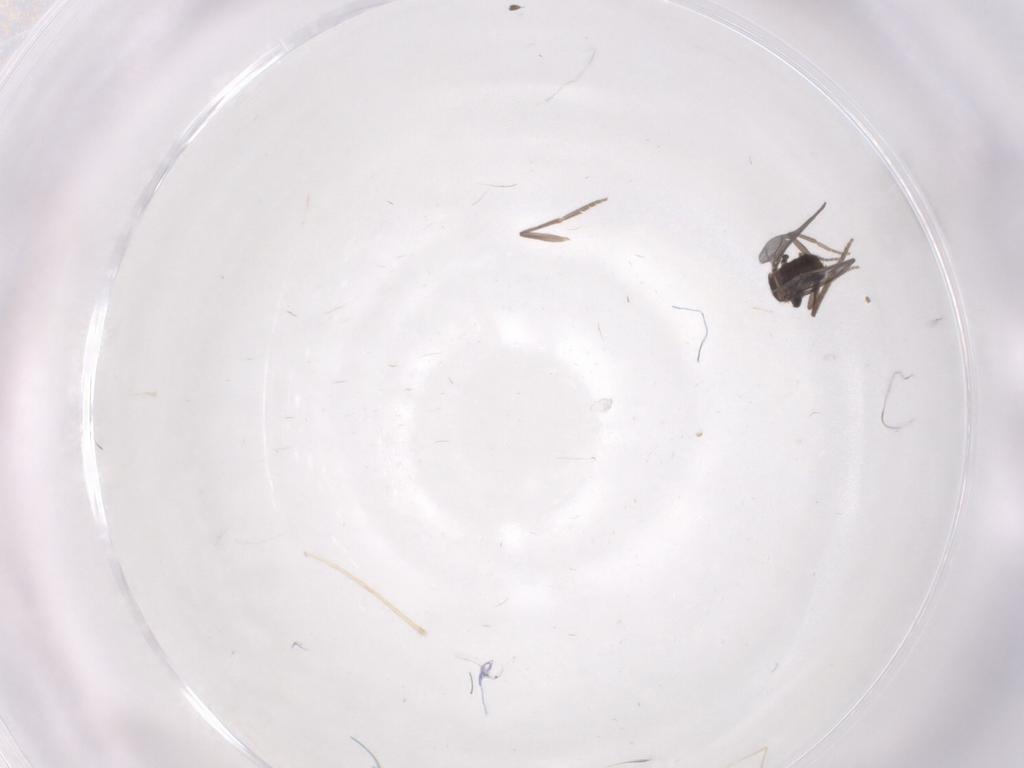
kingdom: Animalia
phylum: Arthropoda
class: Insecta
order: Diptera
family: Cecidomyiidae
